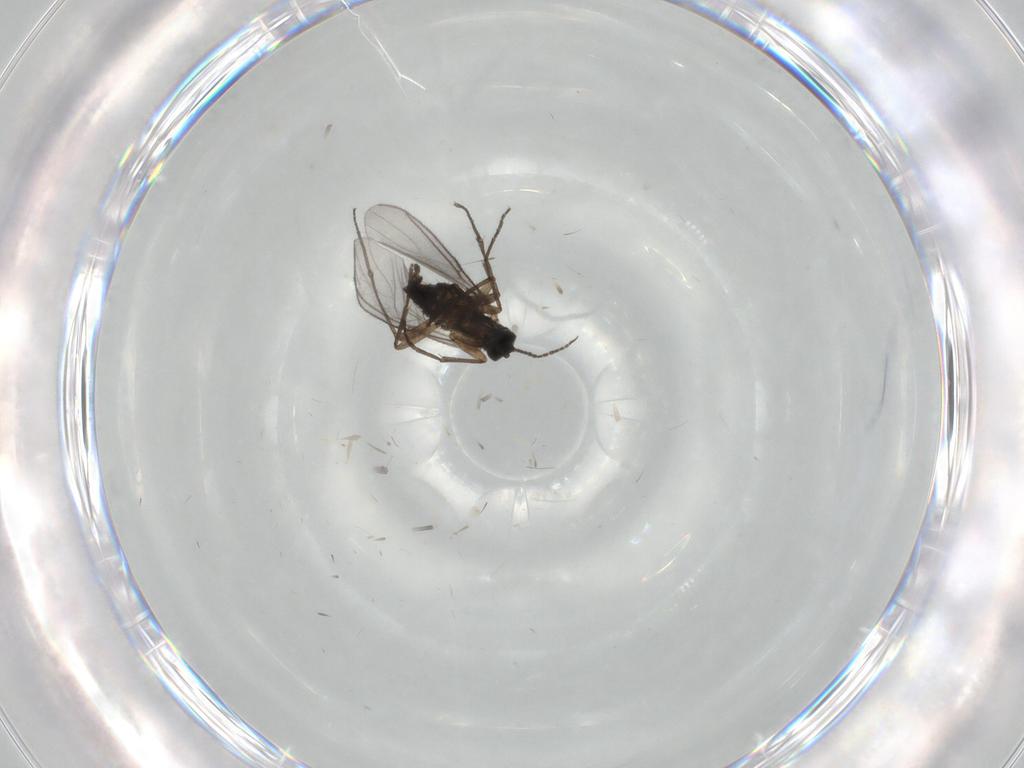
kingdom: Animalia
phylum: Arthropoda
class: Insecta
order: Diptera
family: Sciaridae
